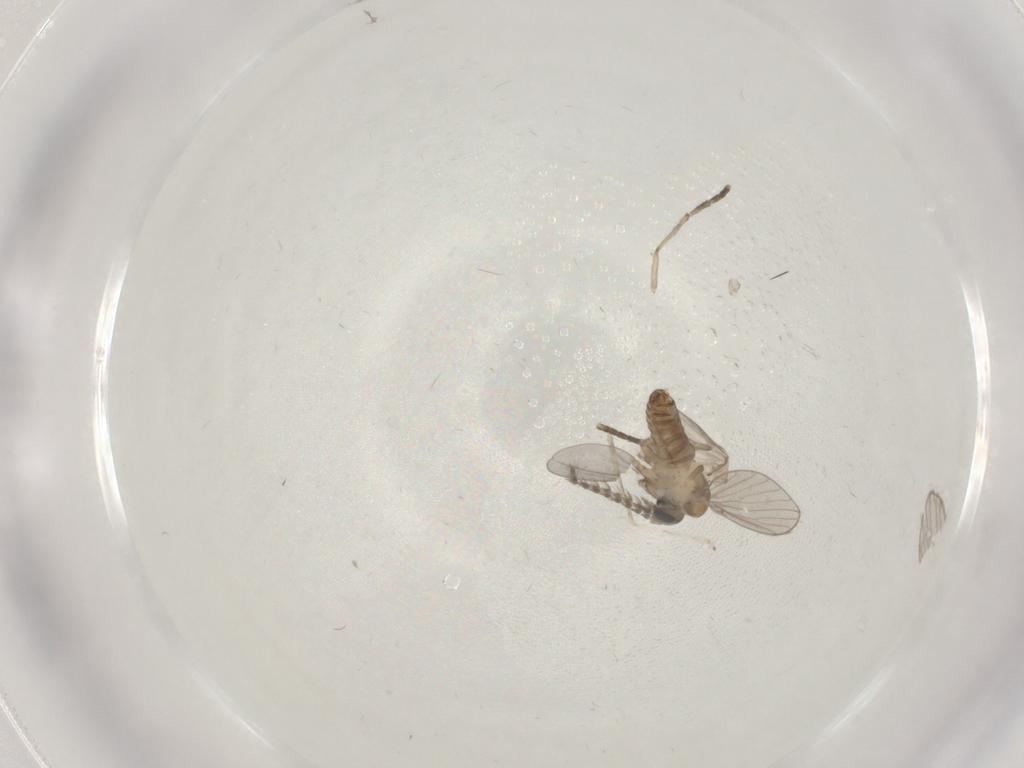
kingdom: Animalia
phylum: Arthropoda
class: Insecta
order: Diptera
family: Cecidomyiidae
